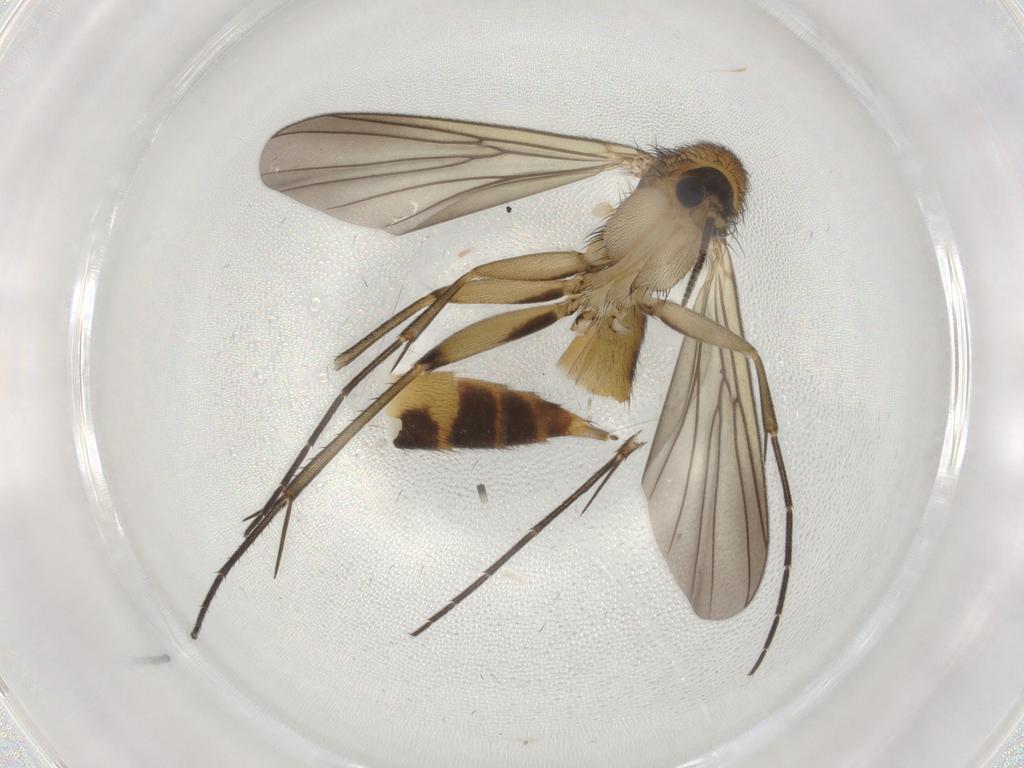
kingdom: Animalia
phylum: Arthropoda
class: Insecta
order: Diptera
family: Mycetophilidae
